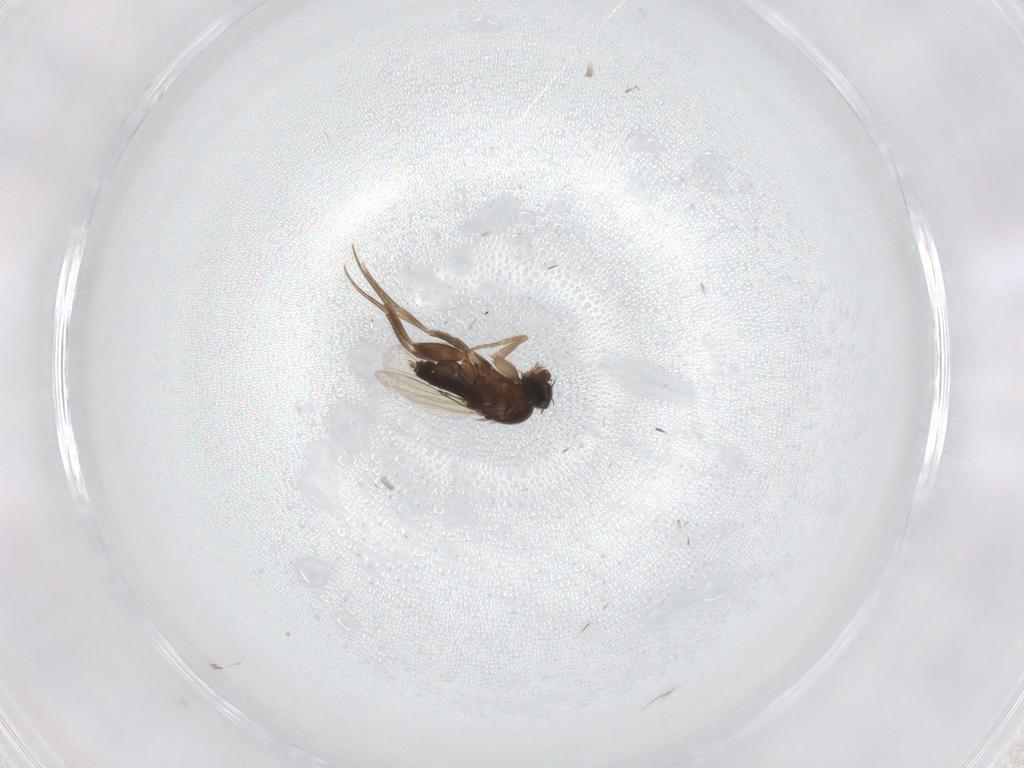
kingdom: Animalia
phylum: Arthropoda
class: Insecta
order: Diptera
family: Phoridae
